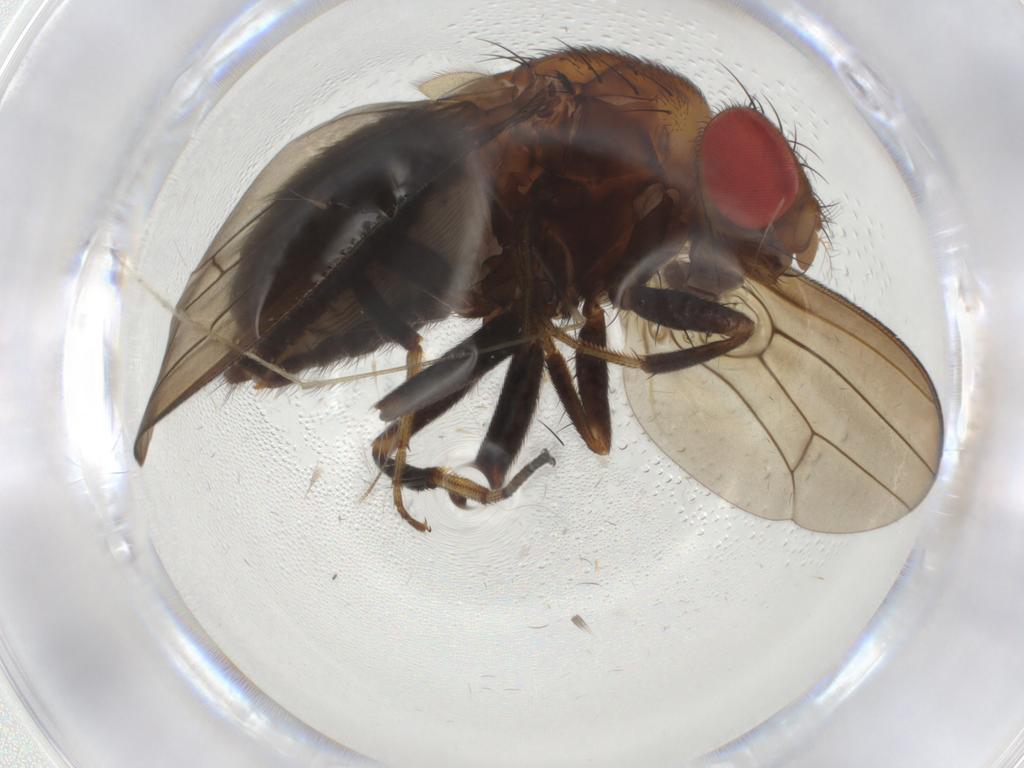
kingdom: Animalia
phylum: Arthropoda
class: Insecta
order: Diptera
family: Drosophilidae
